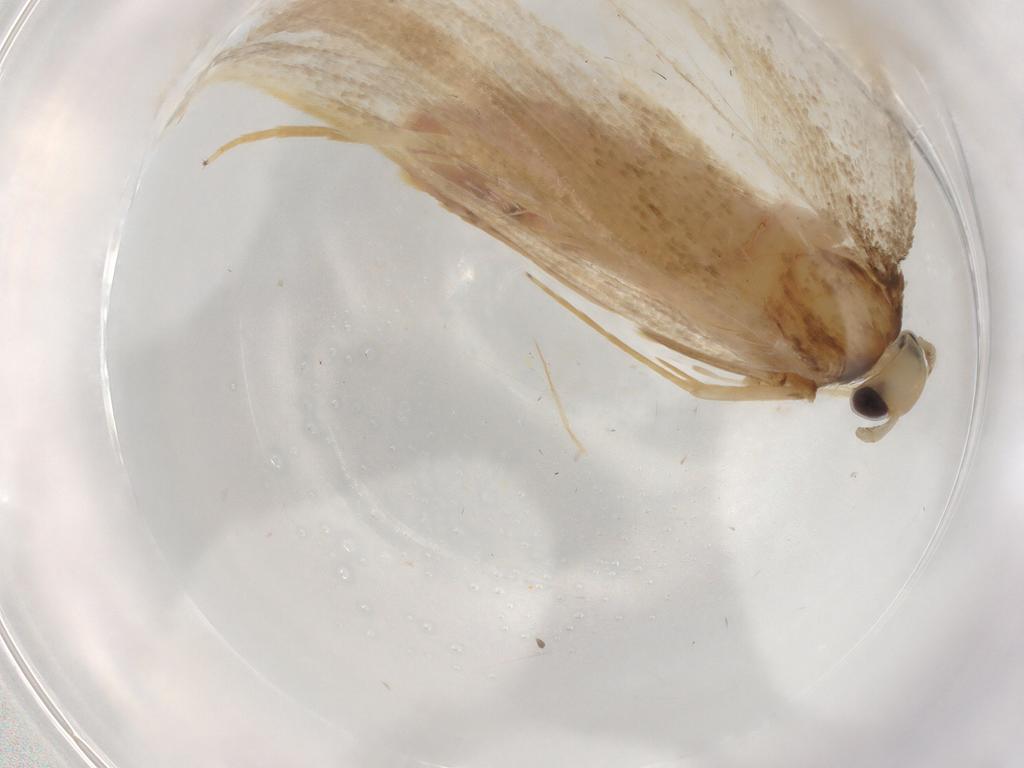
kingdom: Animalia
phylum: Arthropoda
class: Insecta
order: Lepidoptera
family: Lecithoceridae
